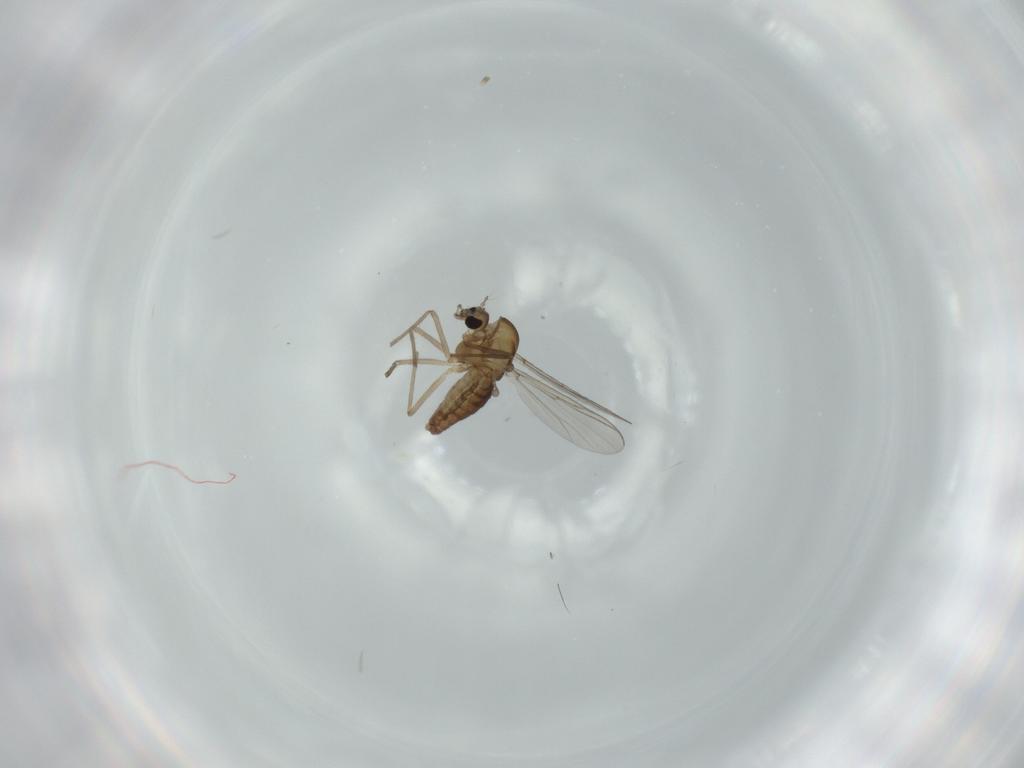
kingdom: Animalia
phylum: Arthropoda
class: Insecta
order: Diptera
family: Chironomidae
